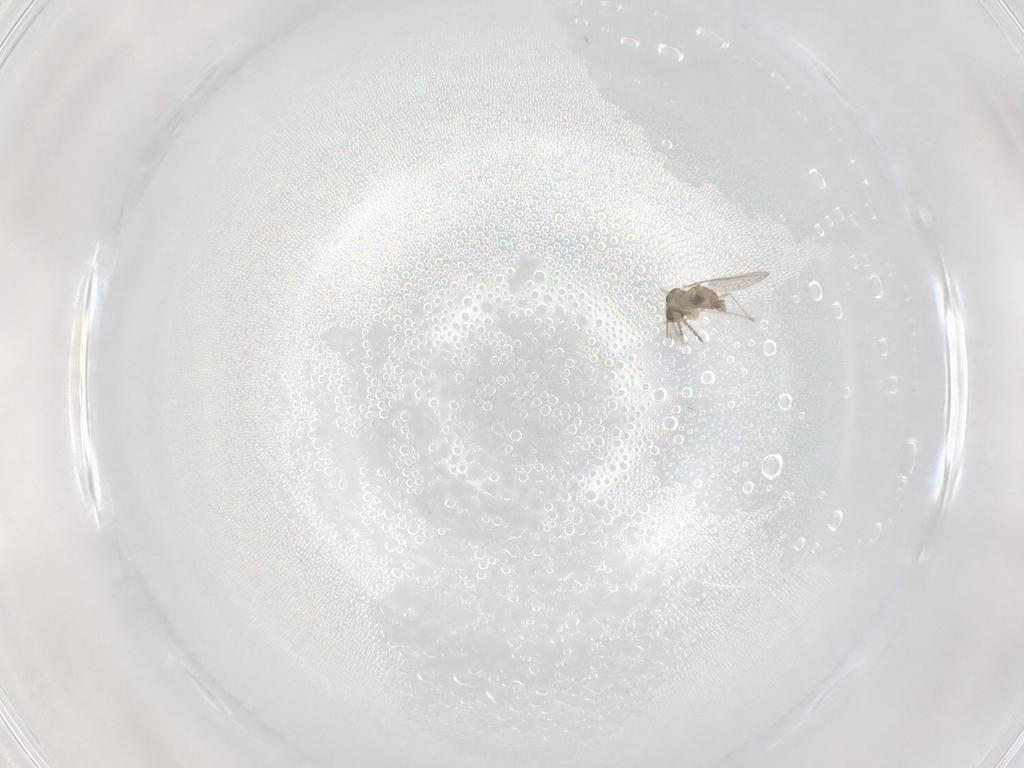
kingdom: Animalia
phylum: Arthropoda
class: Insecta
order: Diptera
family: Cecidomyiidae
